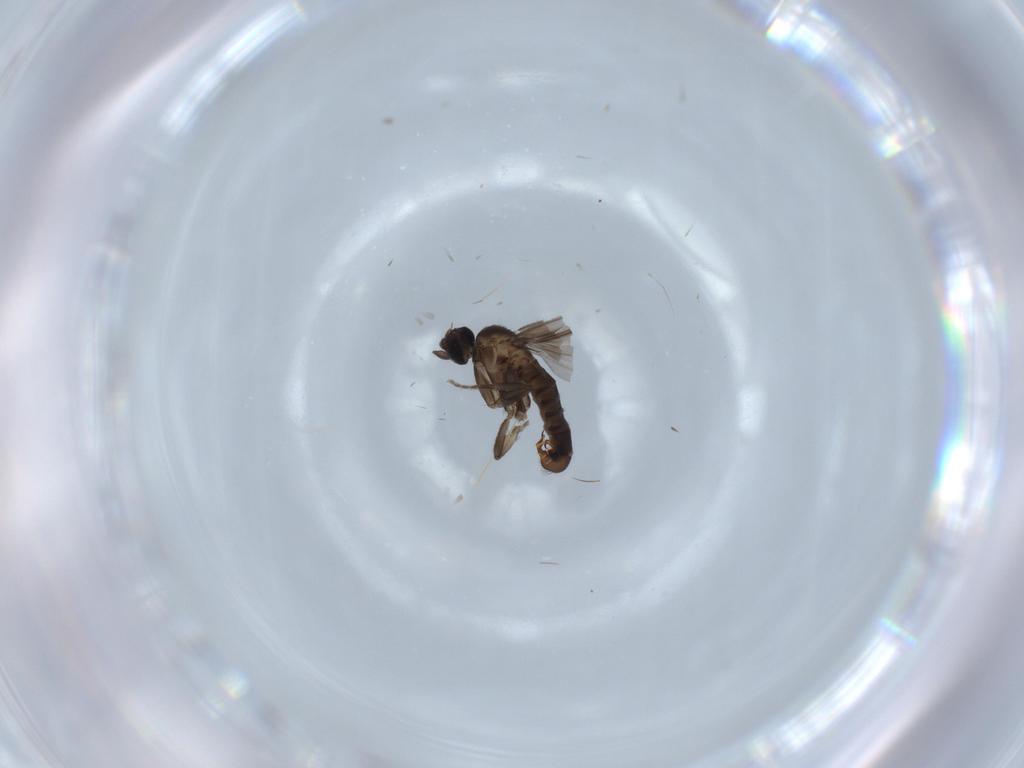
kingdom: Animalia
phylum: Arthropoda
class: Insecta
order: Diptera
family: Phoridae
